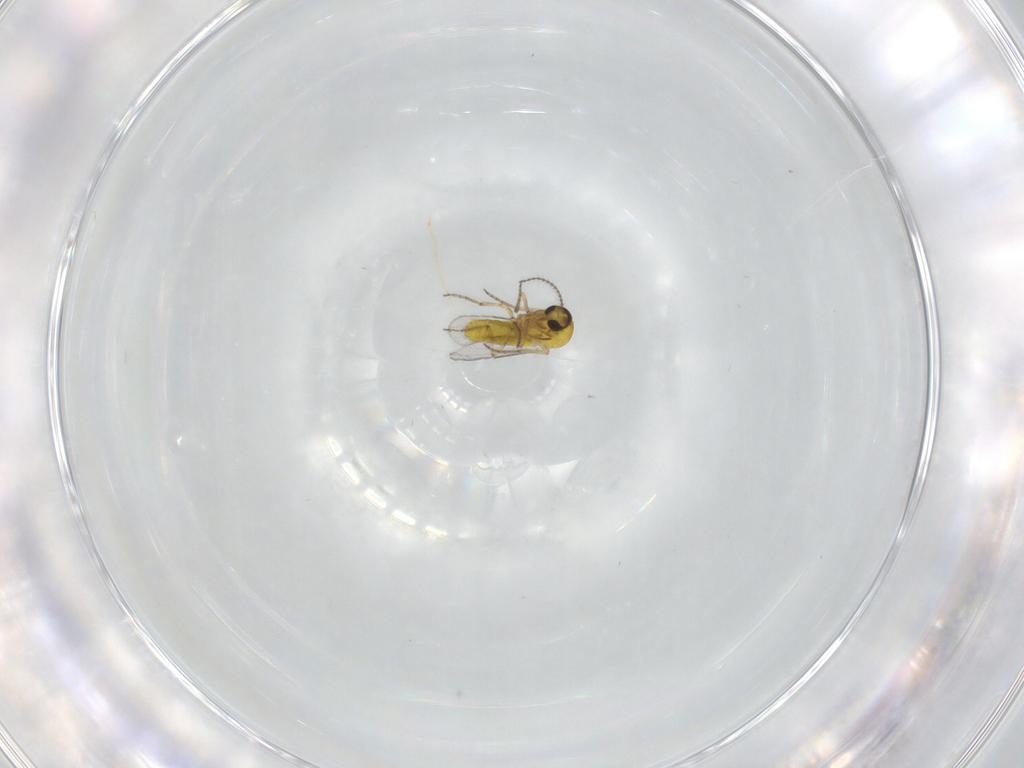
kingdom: Animalia
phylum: Arthropoda
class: Insecta
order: Diptera
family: Ceratopogonidae
